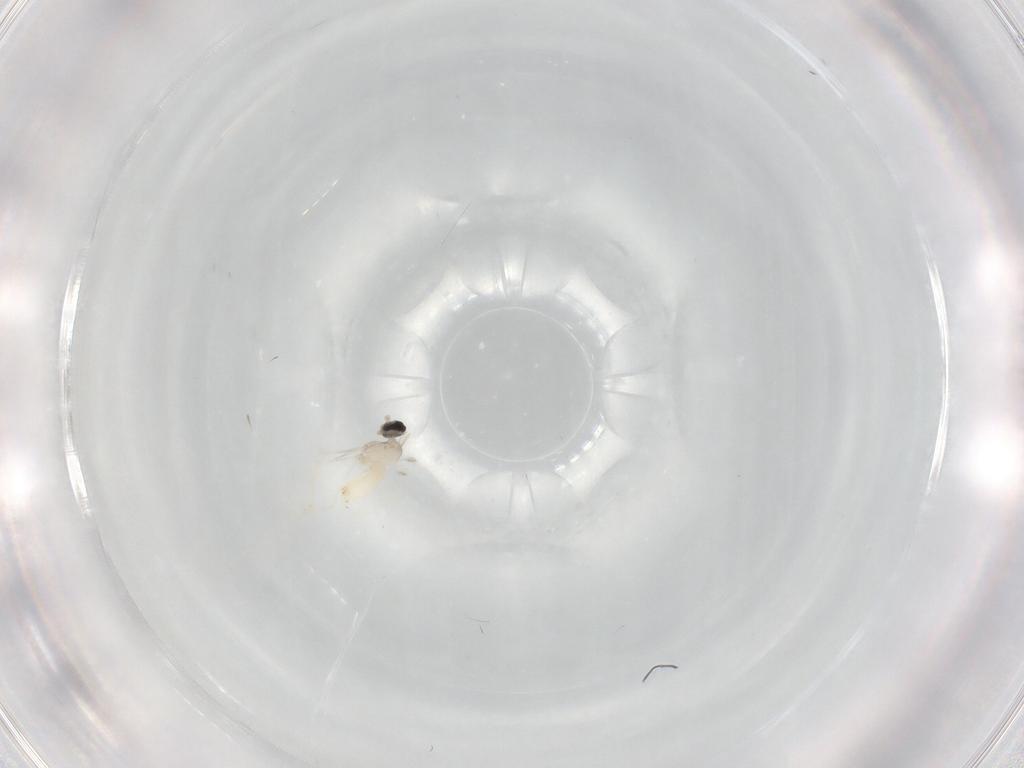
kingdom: Animalia
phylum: Arthropoda
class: Insecta
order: Diptera
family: Cecidomyiidae
